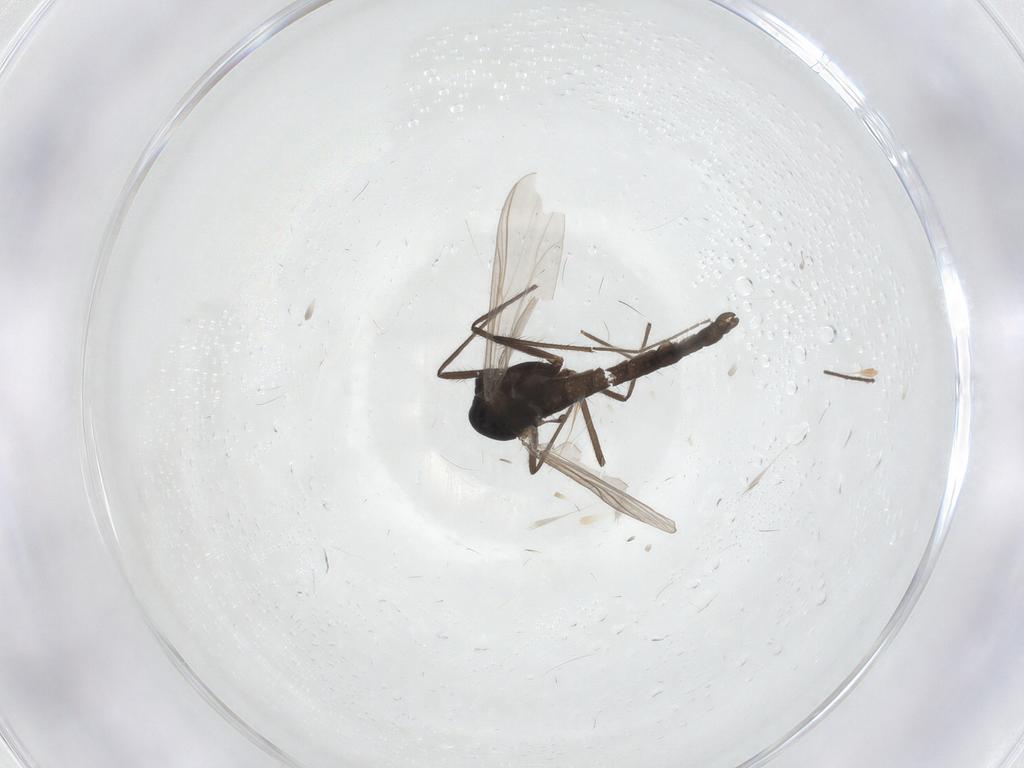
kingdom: Animalia
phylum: Arthropoda
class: Insecta
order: Diptera
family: Chironomidae
